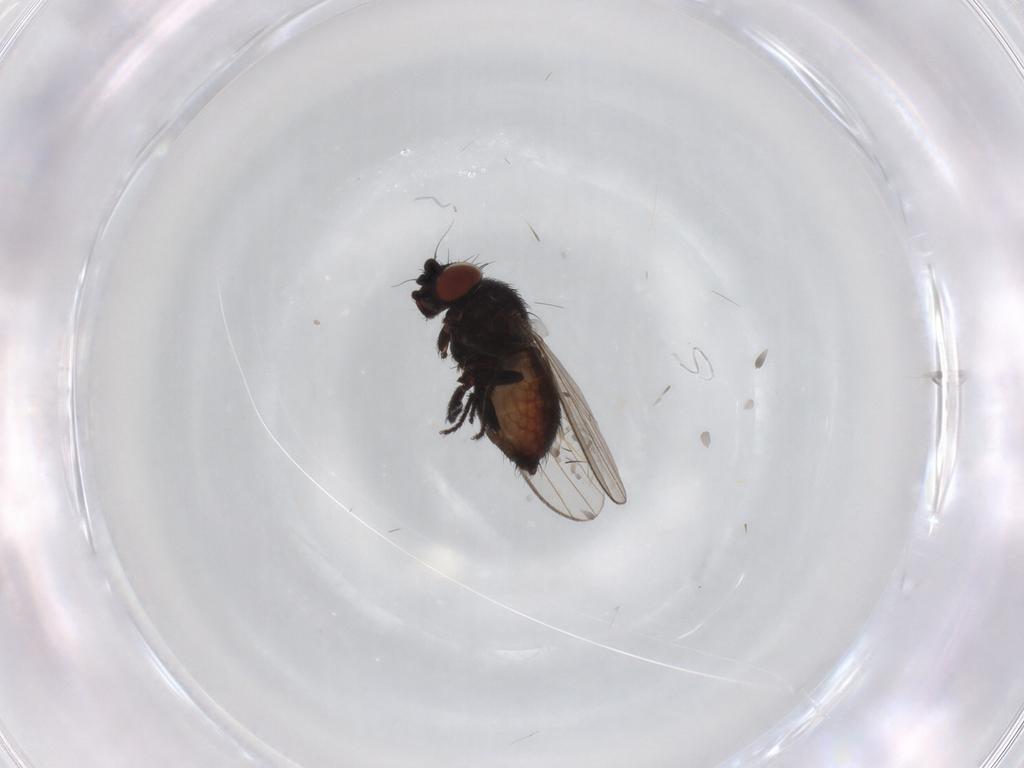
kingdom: Animalia
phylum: Arthropoda
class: Insecta
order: Diptera
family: Milichiidae
